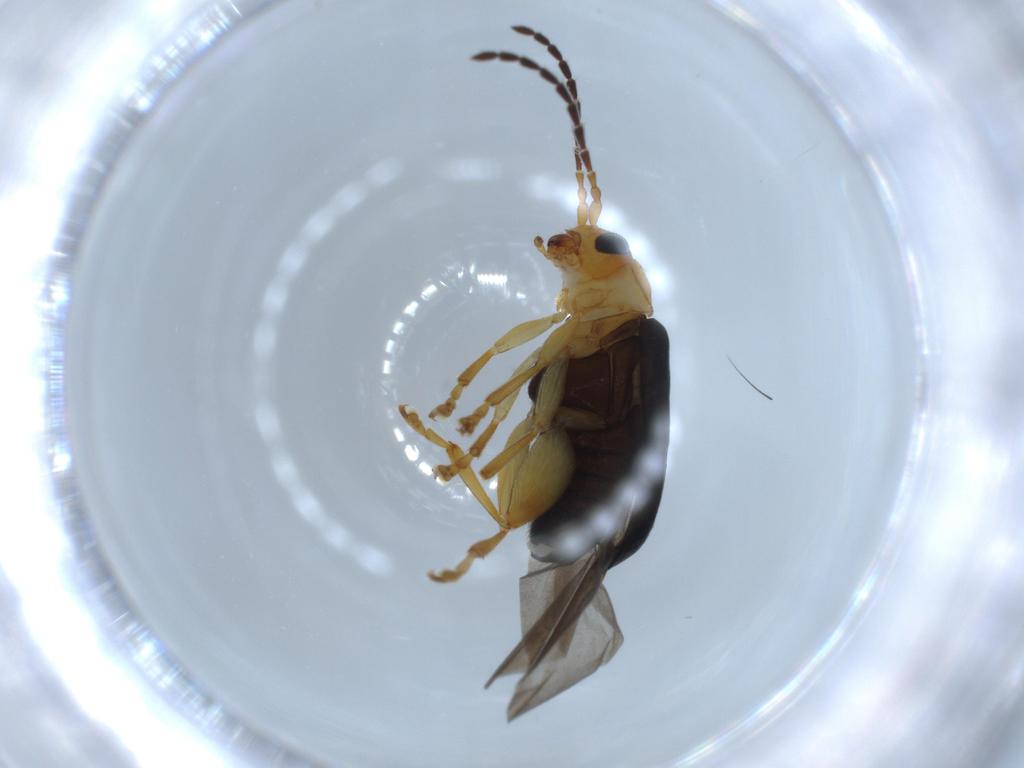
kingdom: Animalia
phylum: Arthropoda
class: Insecta
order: Coleoptera
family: Chrysomelidae
